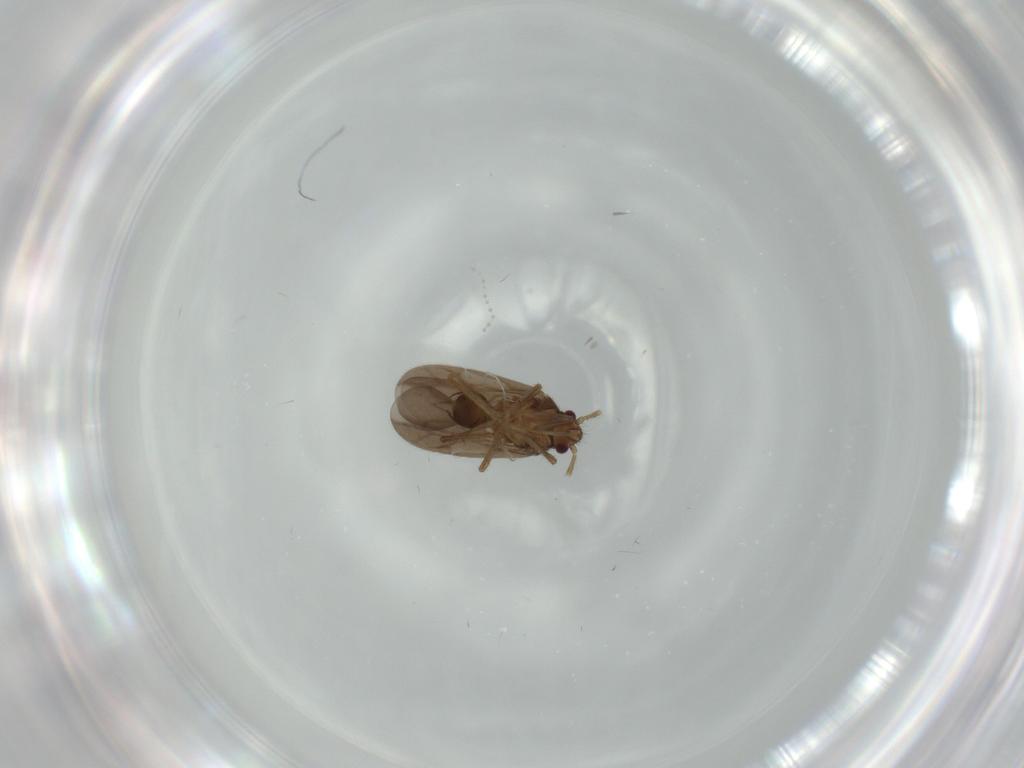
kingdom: Animalia
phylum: Arthropoda
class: Insecta
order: Hemiptera
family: Ceratocombidae
